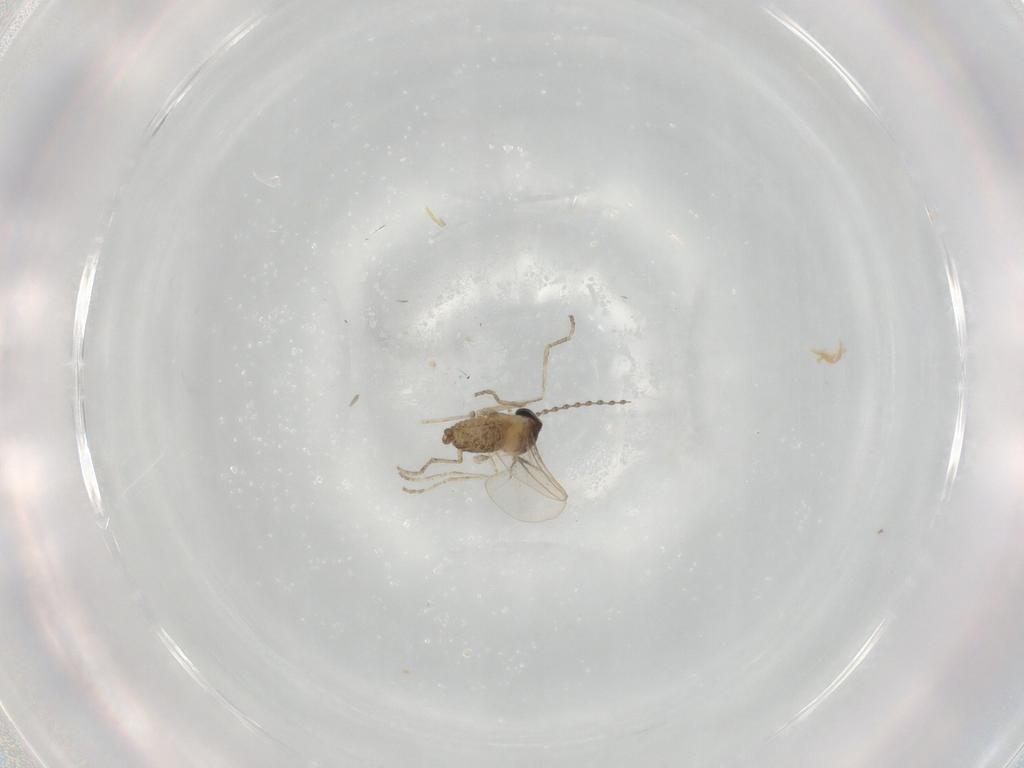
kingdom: Animalia
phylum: Arthropoda
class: Insecta
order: Diptera
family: Cecidomyiidae
